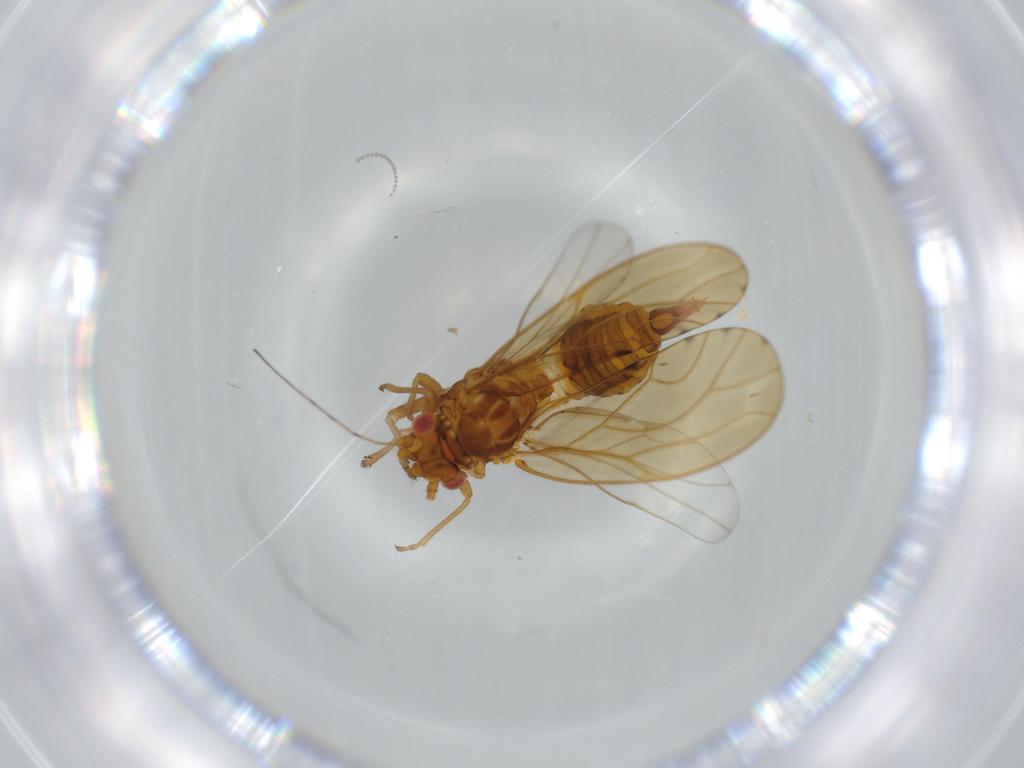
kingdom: Animalia
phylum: Arthropoda
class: Insecta
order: Hemiptera
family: Psylloidea_incertae_sedis
